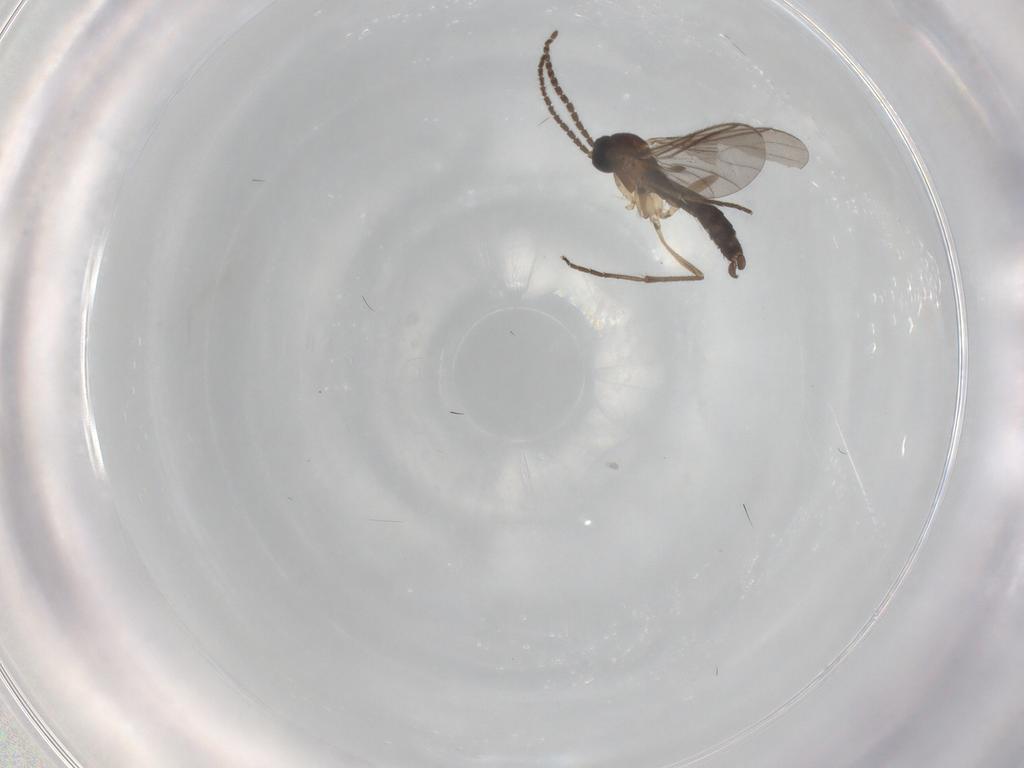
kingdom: Animalia
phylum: Arthropoda
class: Insecta
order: Diptera
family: Sciaridae
